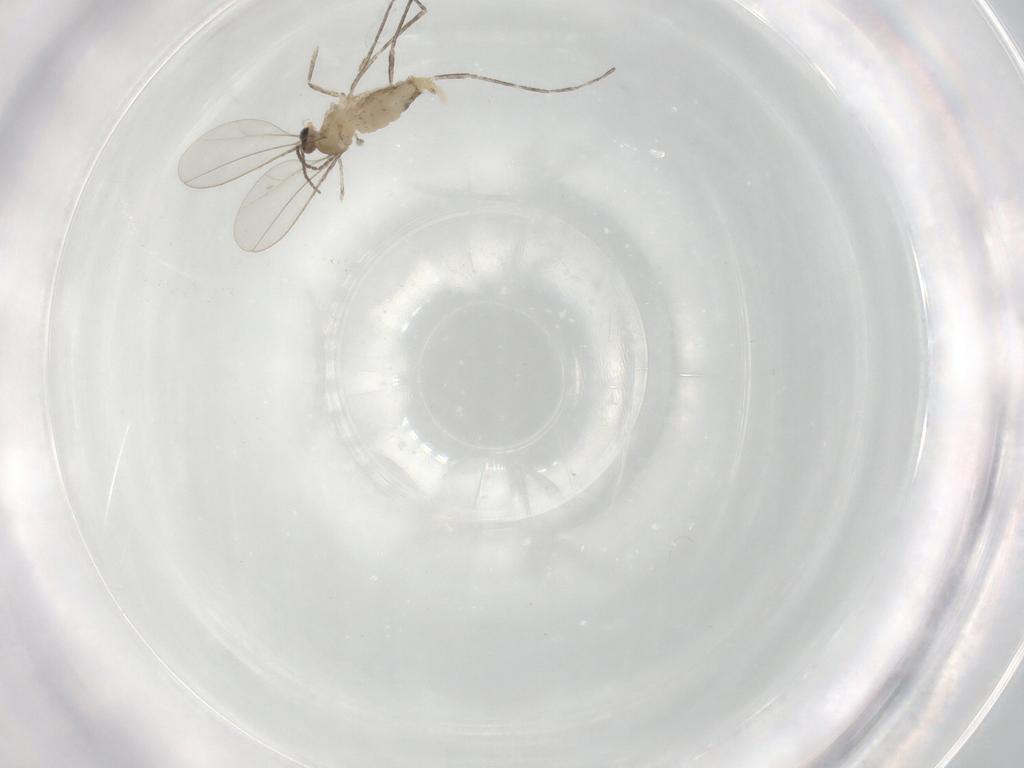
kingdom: Animalia
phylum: Arthropoda
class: Insecta
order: Diptera
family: Cecidomyiidae
